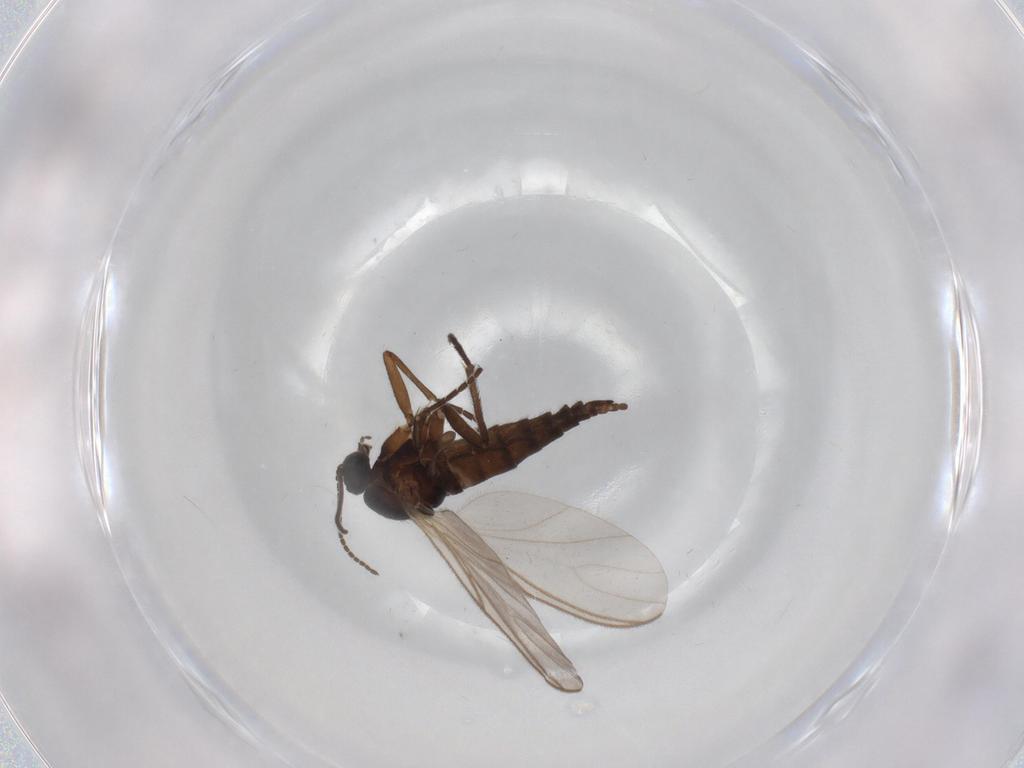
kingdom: Animalia
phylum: Arthropoda
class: Insecta
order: Diptera
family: Sciaridae
